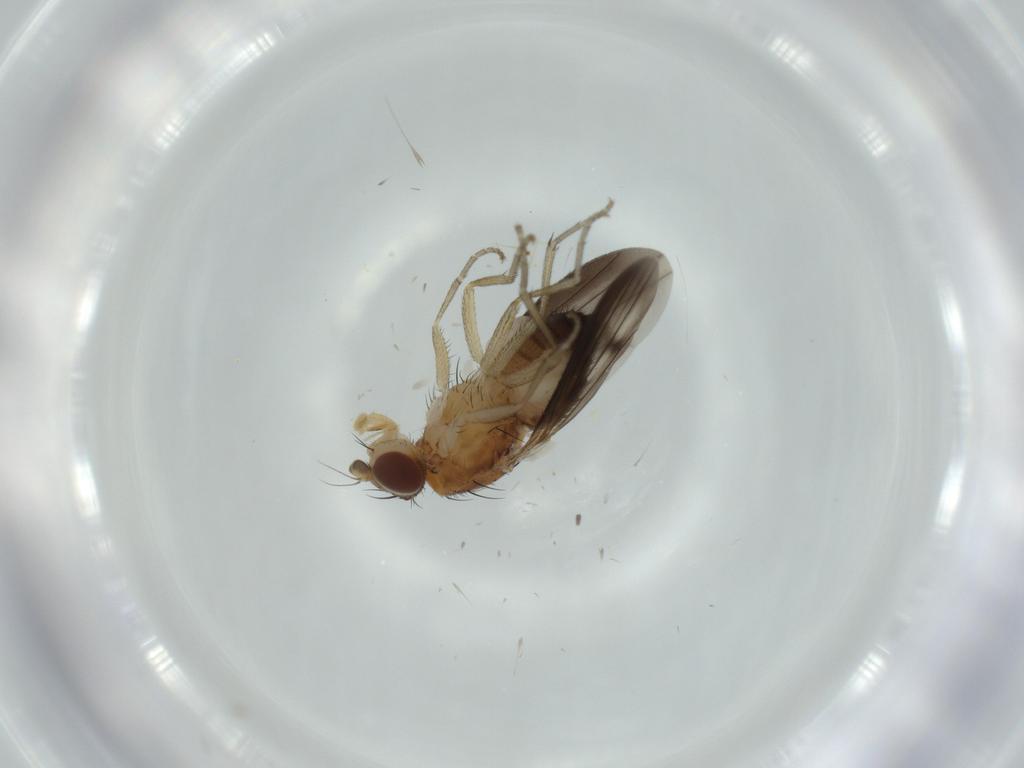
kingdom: Animalia
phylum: Arthropoda
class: Insecta
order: Diptera
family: Heleomyzidae
